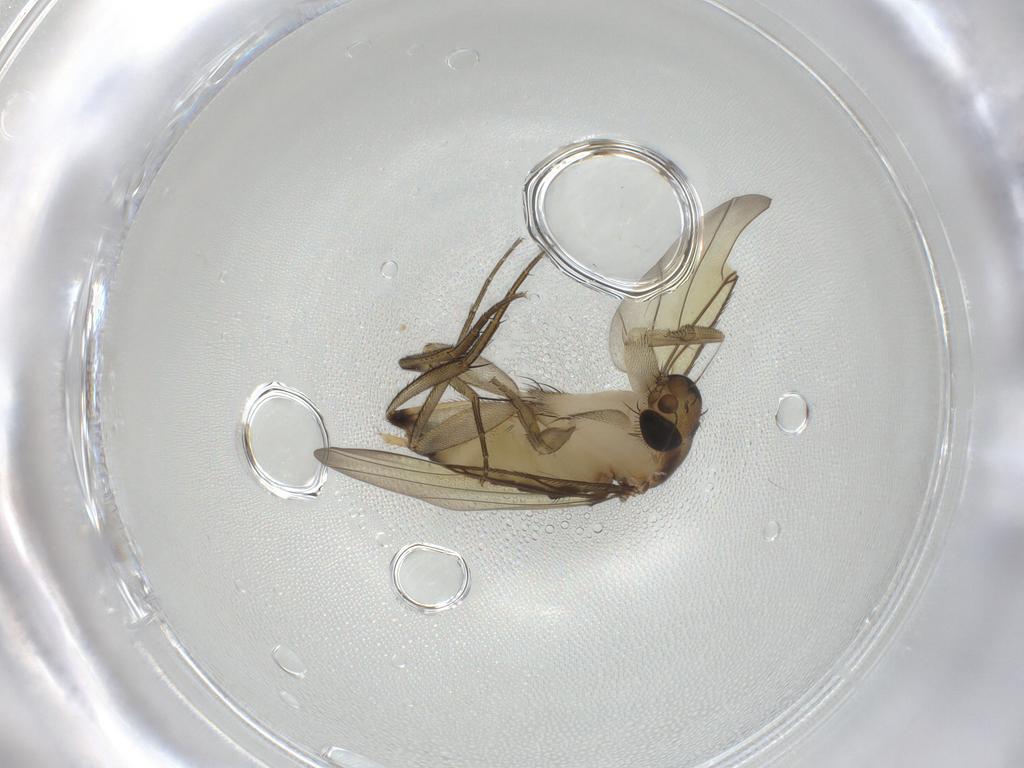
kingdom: Animalia
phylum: Arthropoda
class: Insecta
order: Diptera
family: Phoridae
